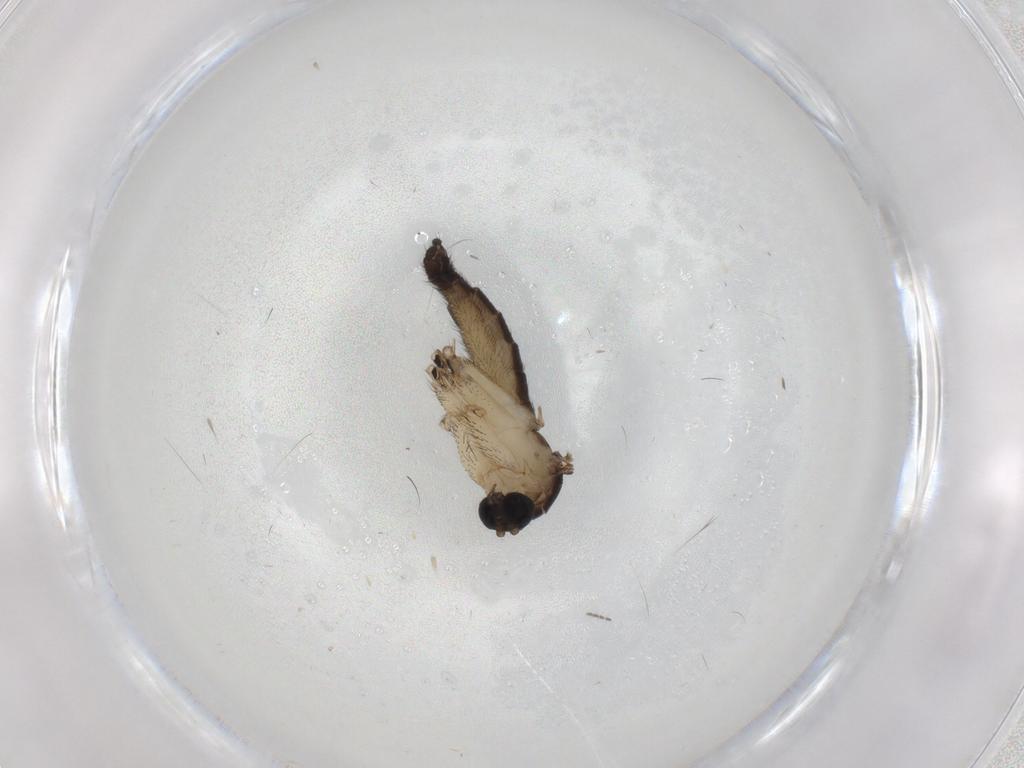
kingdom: Animalia
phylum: Arthropoda
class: Insecta
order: Diptera
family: Sciaridae
